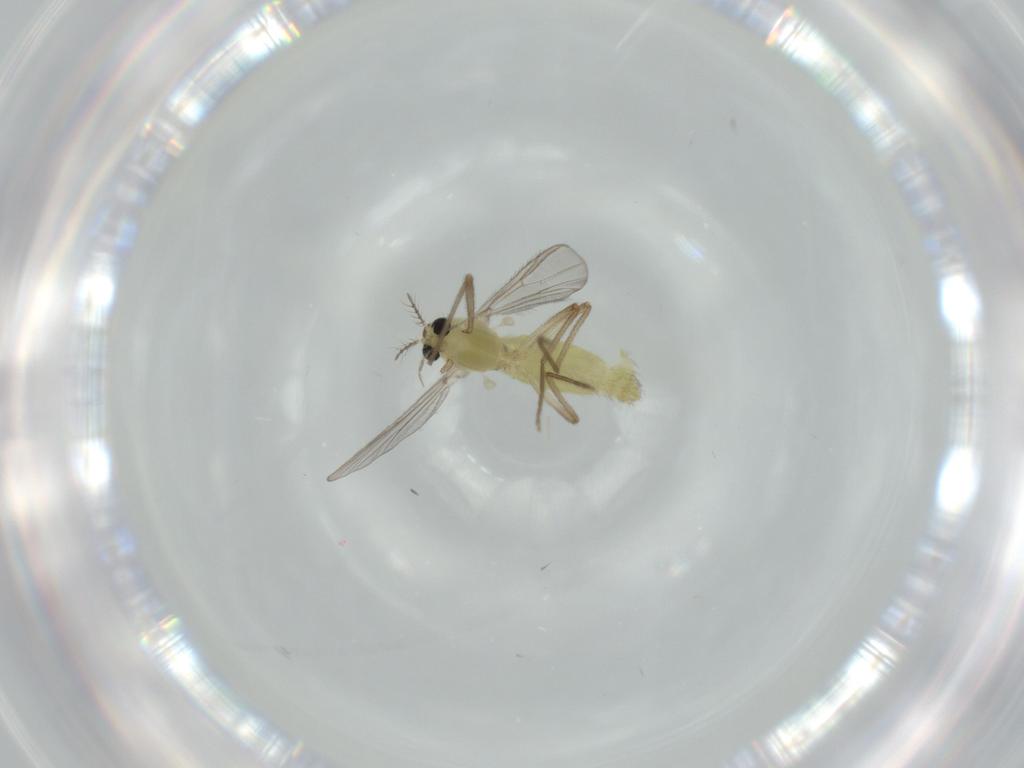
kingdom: Animalia
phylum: Arthropoda
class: Insecta
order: Diptera
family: Chironomidae
